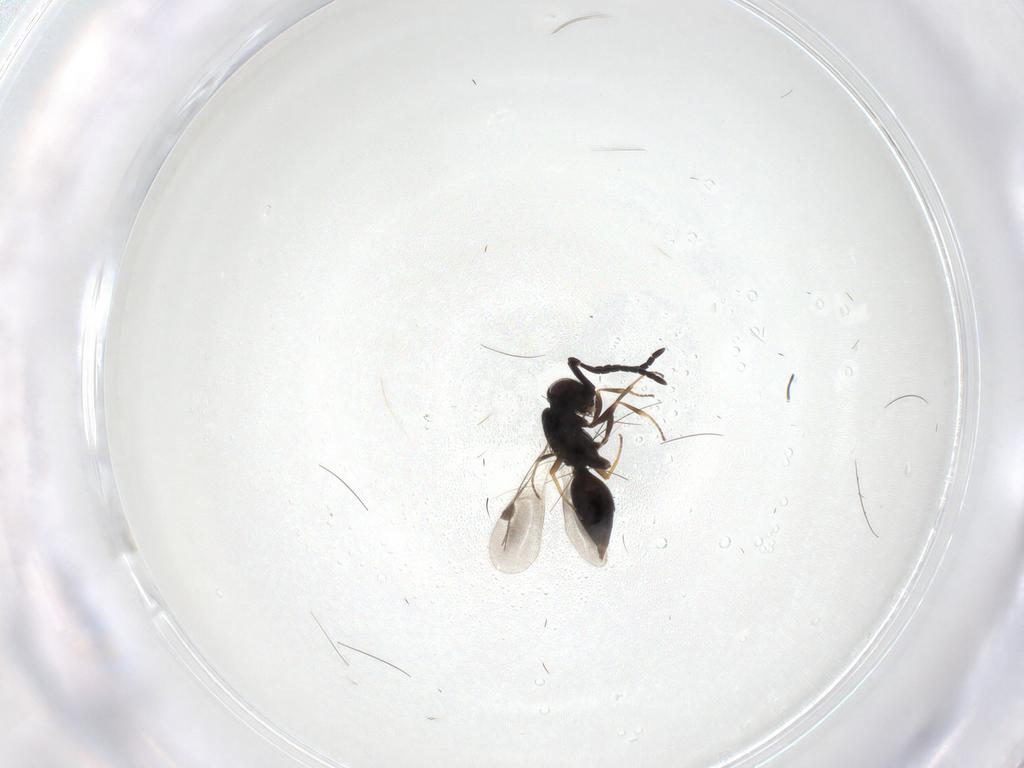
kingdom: Animalia
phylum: Arthropoda
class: Insecta
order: Hymenoptera
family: Megaspilidae
